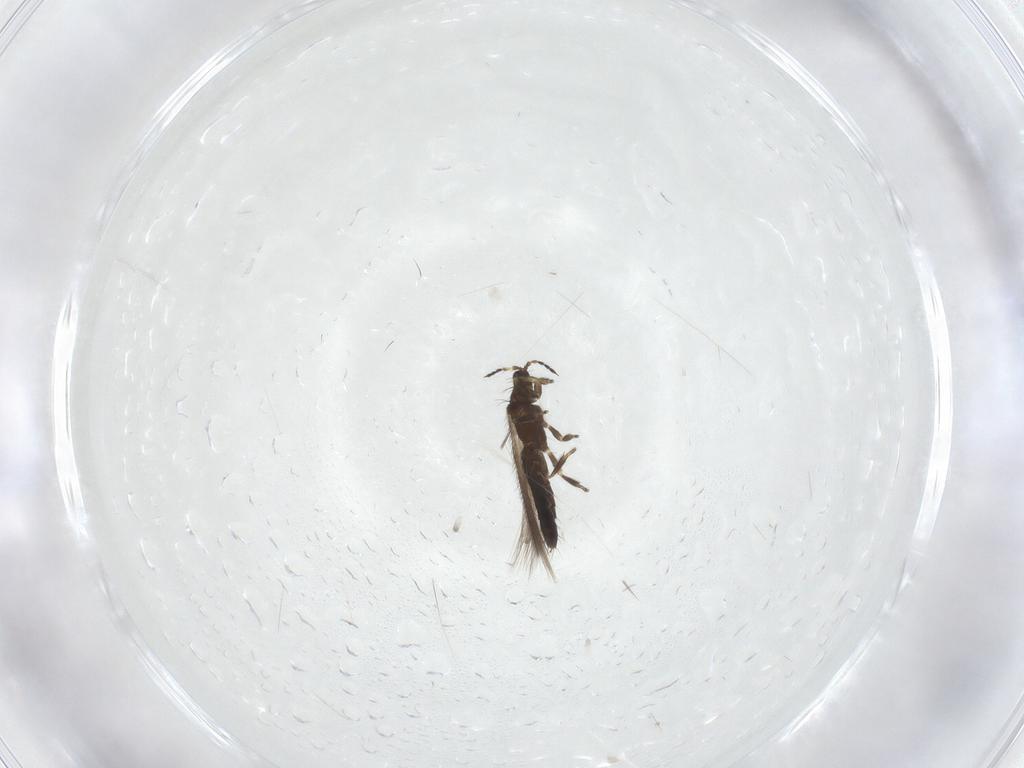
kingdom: Animalia
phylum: Arthropoda
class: Insecta
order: Thysanoptera
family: Thripidae
